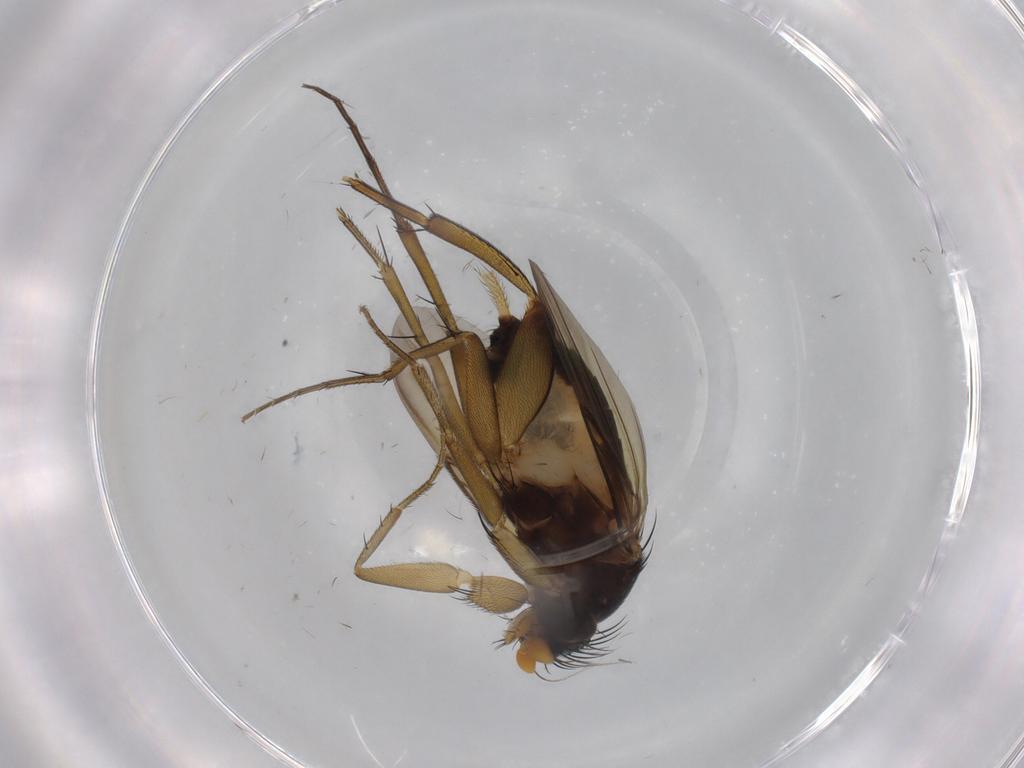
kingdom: Animalia
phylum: Arthropoda
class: Insecta
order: Diptera
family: Phoridae
